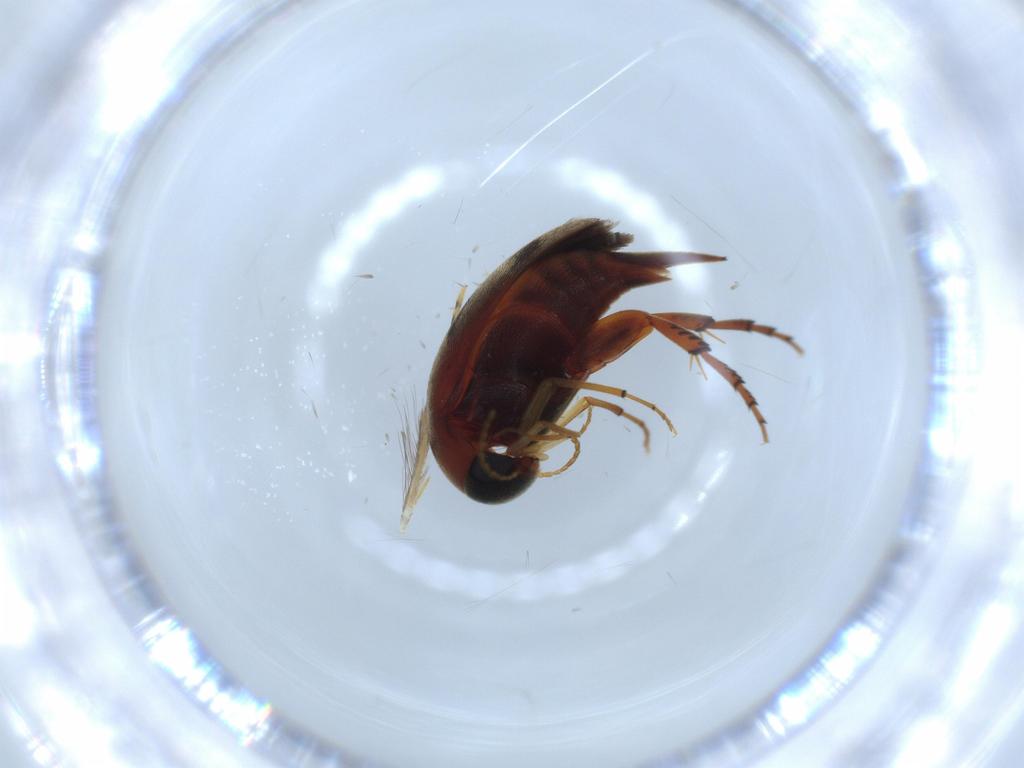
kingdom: Animalia
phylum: Arthropoda
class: Insecta
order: Coleoptera
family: Mordellidae
